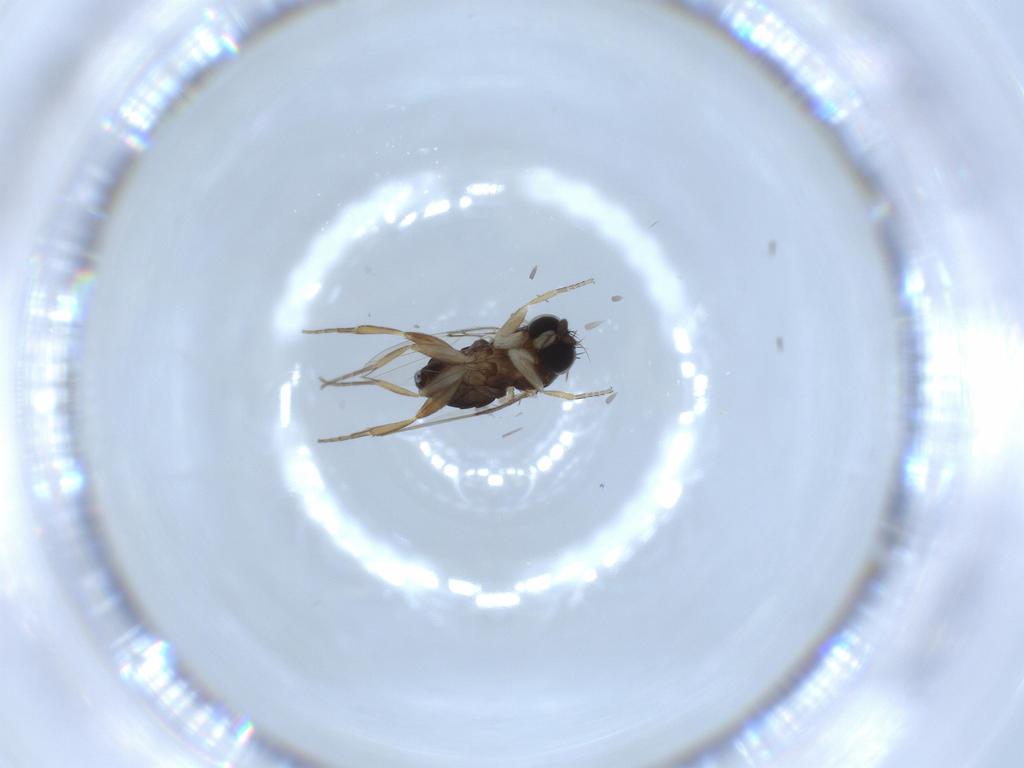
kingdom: Animalia
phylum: Arthropoda
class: Insecta
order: Diptera
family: Phoridae
